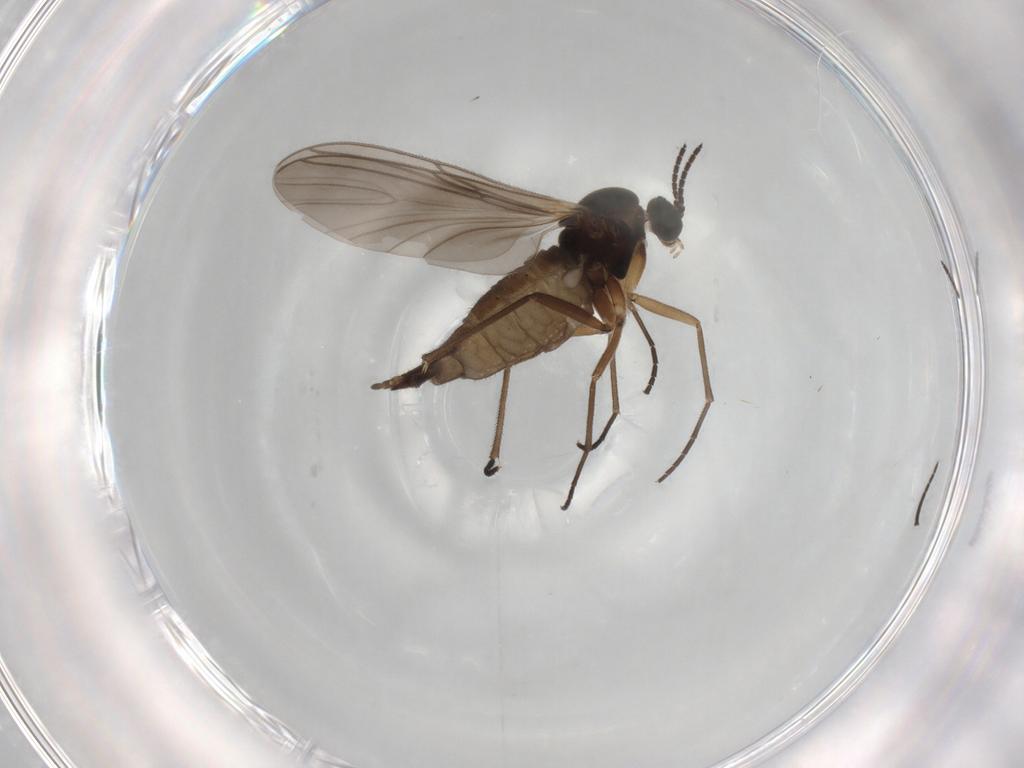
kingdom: Animalia
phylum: Arthropoda
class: Insecta
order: Diptera
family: Sciaridae
